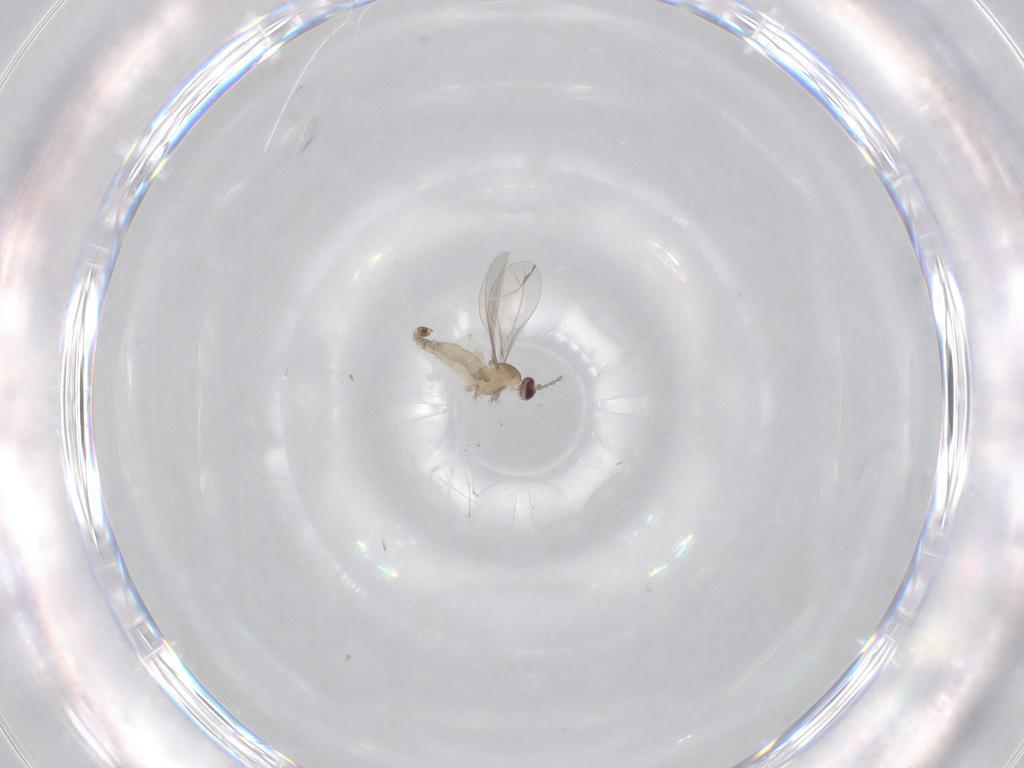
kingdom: Animalia
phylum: Arthropoda
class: Insecta
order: Diptera
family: Cecidomyiidae
